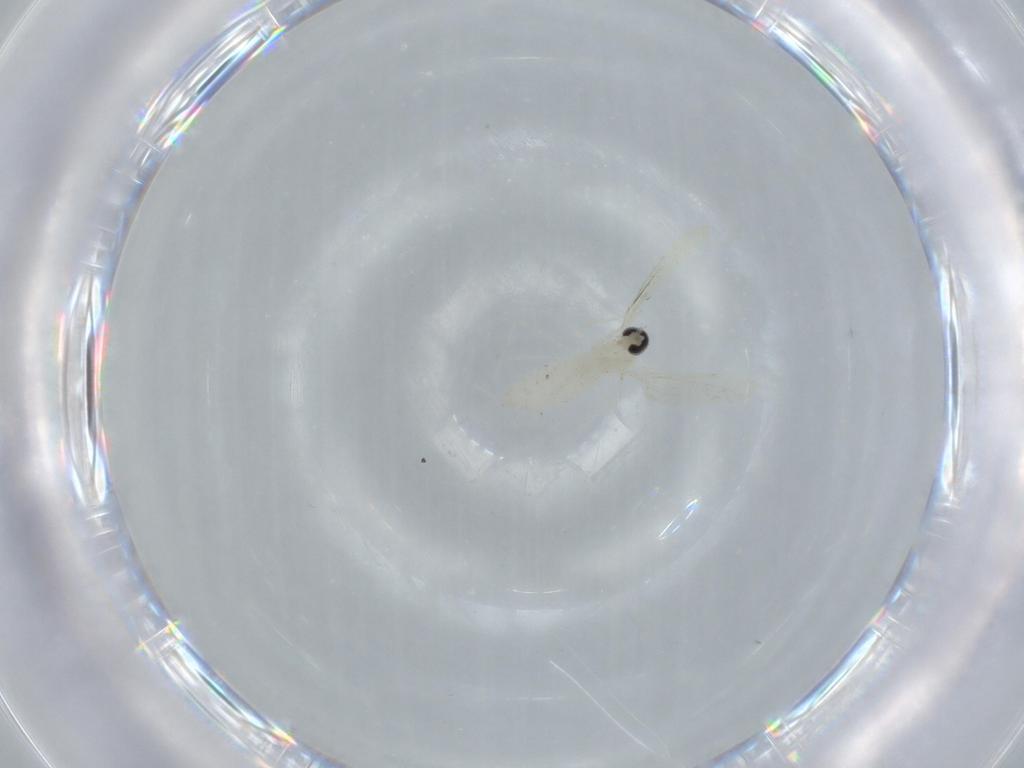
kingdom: Animalia
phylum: Arthropoda
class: Insecta
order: Diptera
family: Cecidomyiidae
